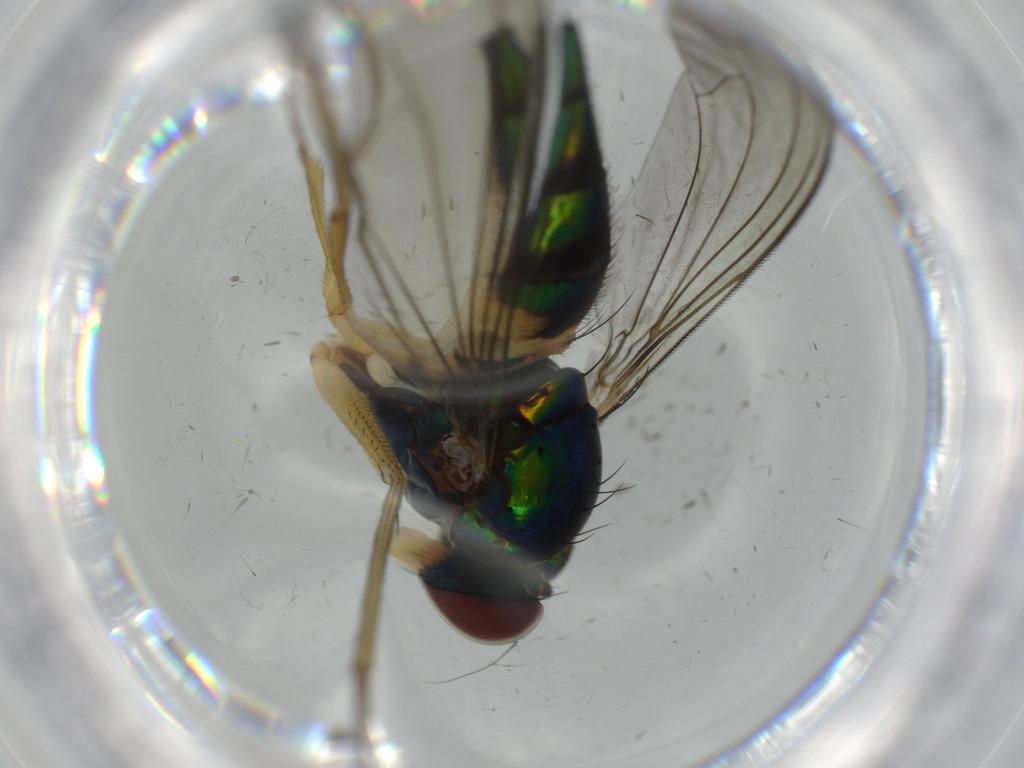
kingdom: Animalia
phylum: Arthropoda
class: Insecta
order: Diptera
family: Dolichopodidae
